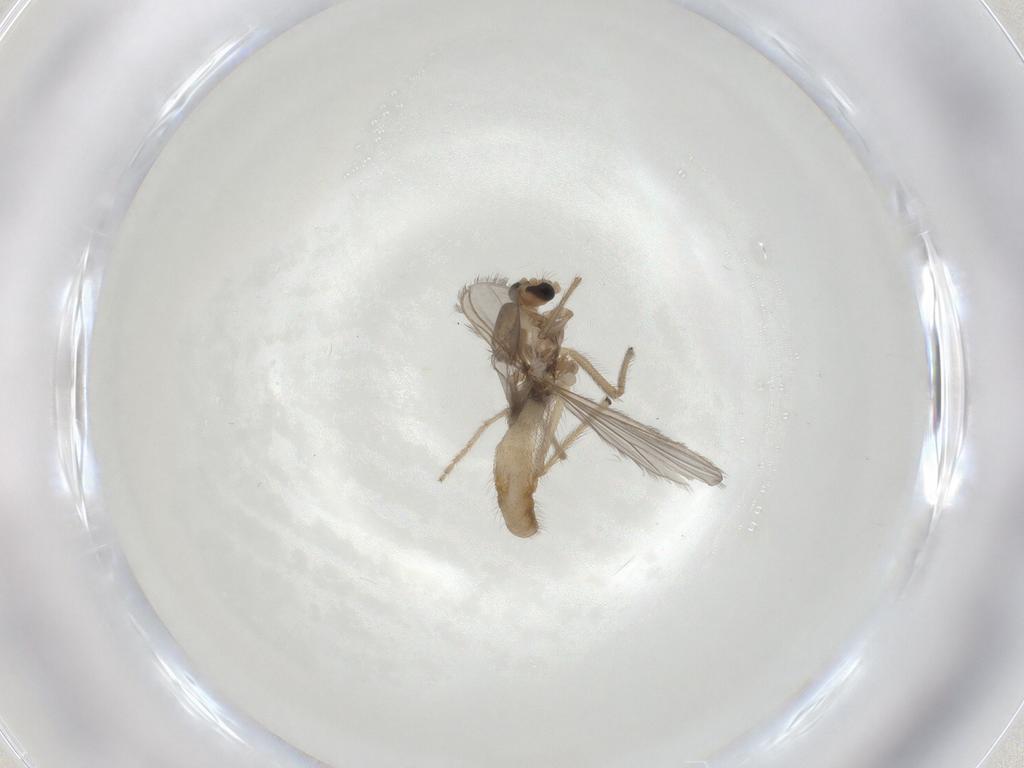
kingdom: Animalia
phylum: Arthropoda
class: Insecta
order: Diptera
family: Chironomidae
